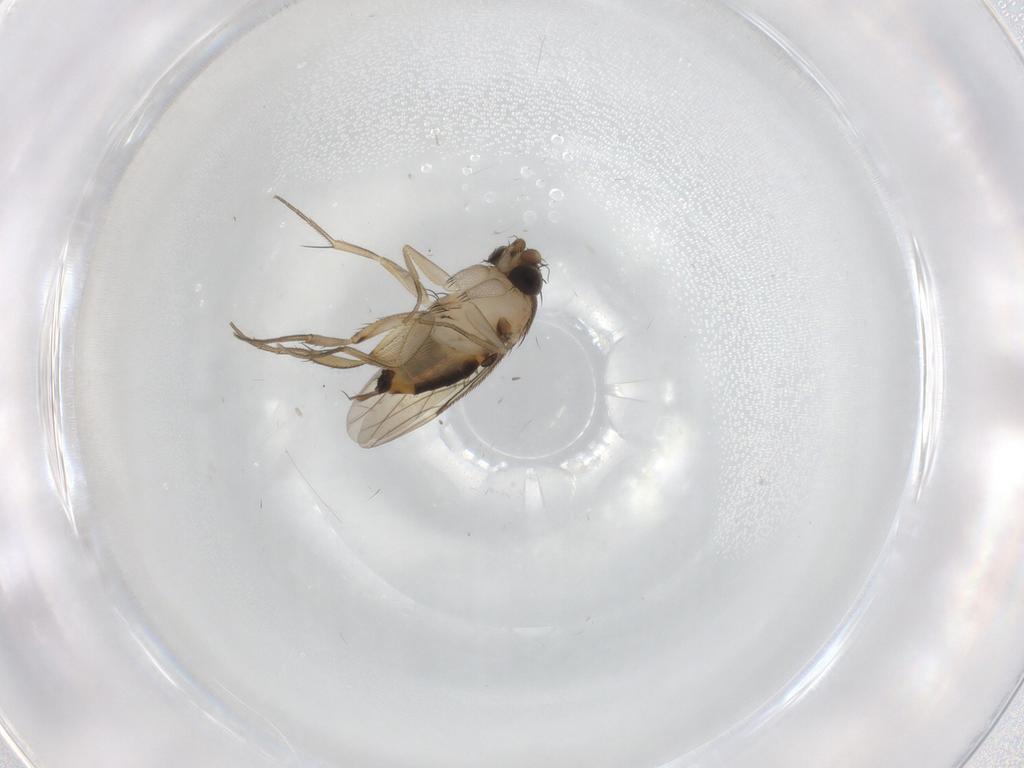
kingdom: Animalia
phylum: Arthropoda
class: Insecta
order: Diptera
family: Phoridae
